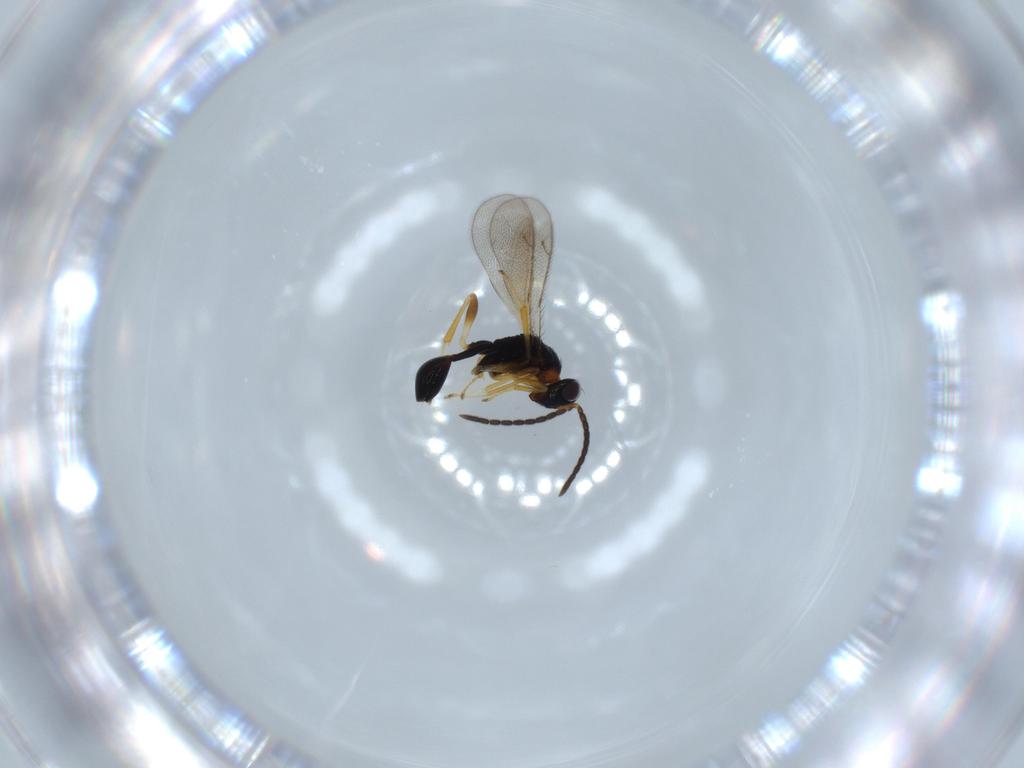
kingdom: Animalia
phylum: Arthropoda
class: Insecta
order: Hymenoptera
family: Diparidae
